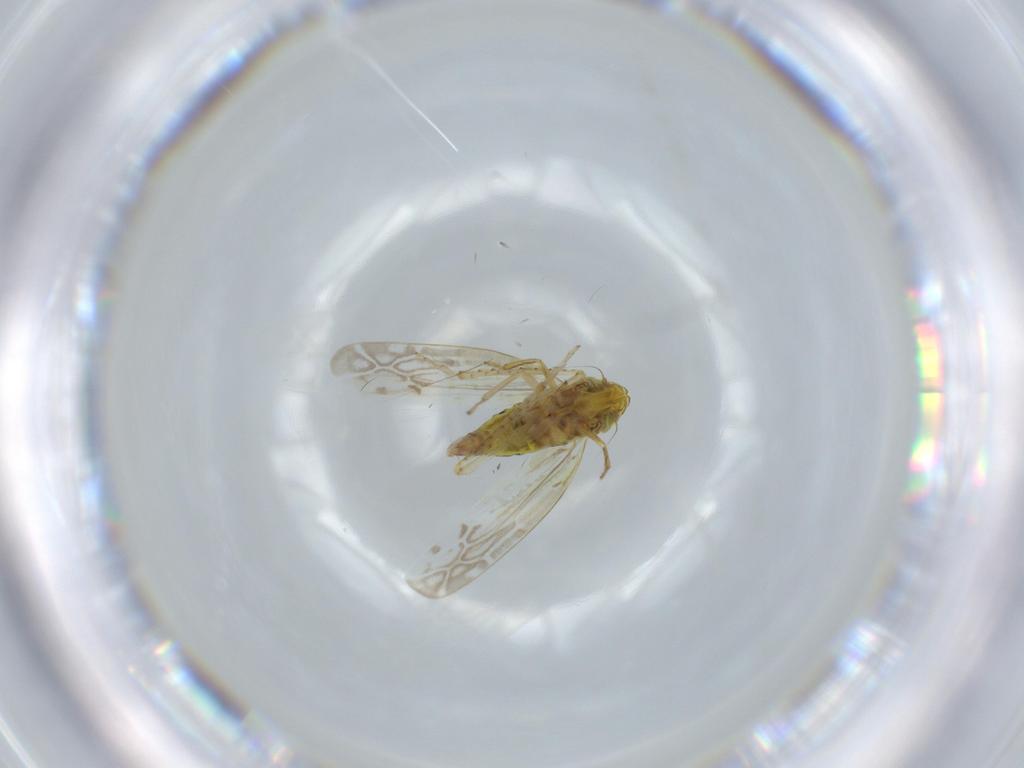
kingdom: Animalia
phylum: Arthropoda
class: Insecta
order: Hemiptera
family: Cicadellidae
